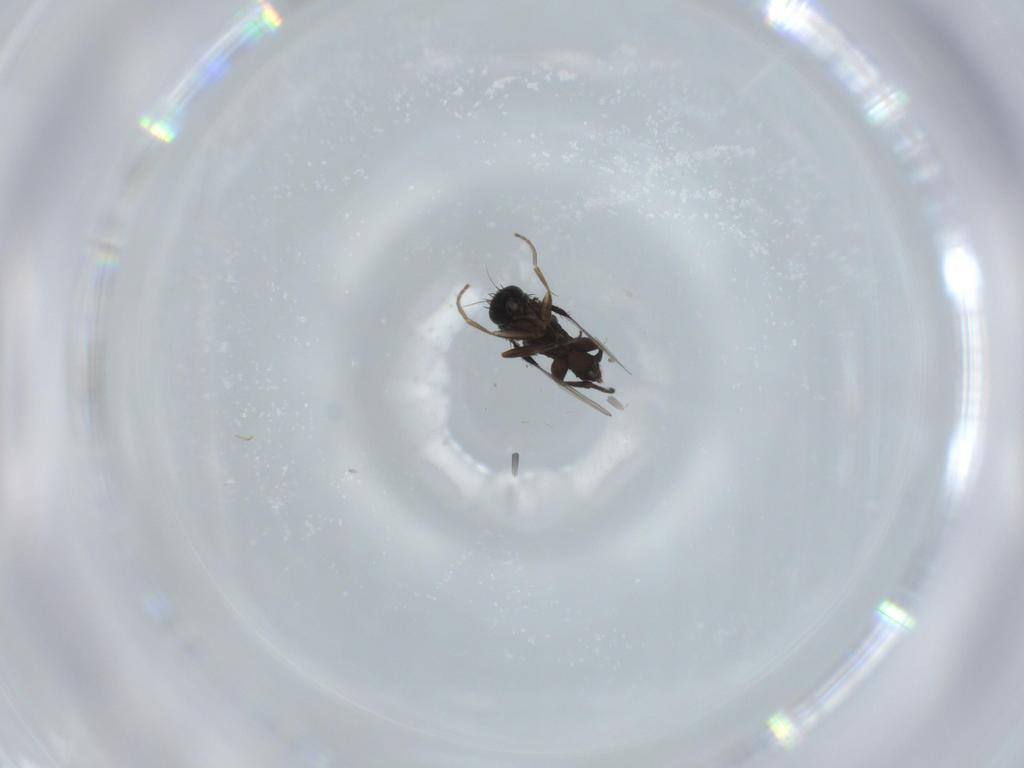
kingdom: Animalia
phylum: Arthropoda
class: Insecta
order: Diptera
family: Phoridae
